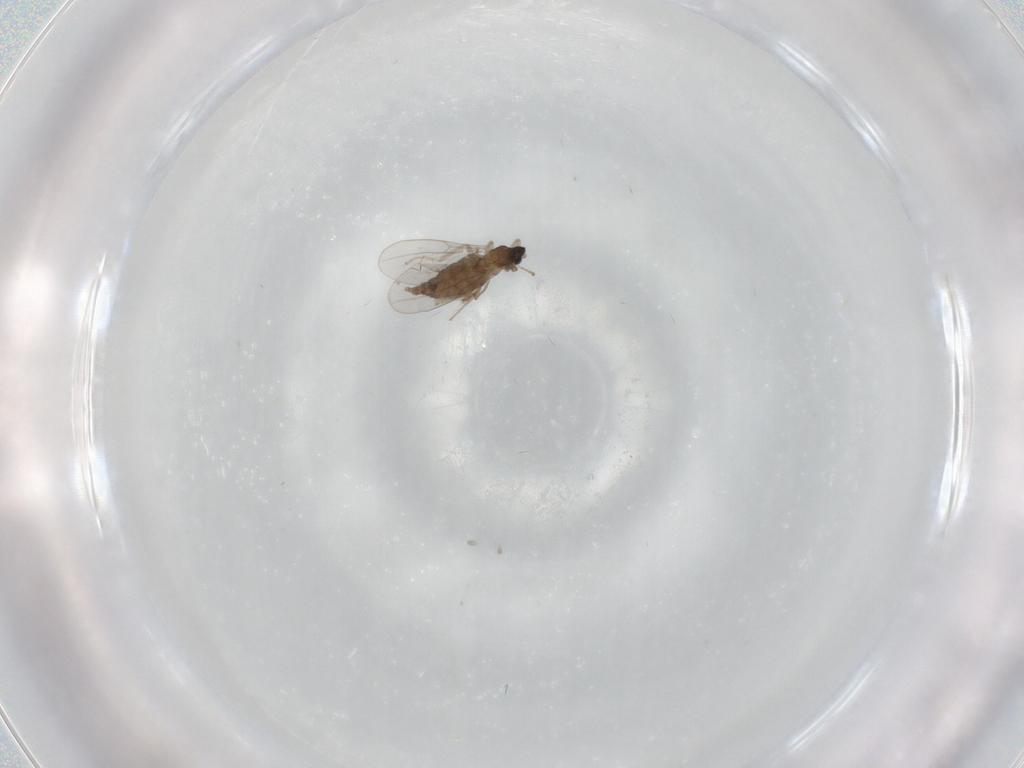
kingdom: Animalia
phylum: Arthropoda
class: Insecta
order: Diptera
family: Cecidomyiidae
